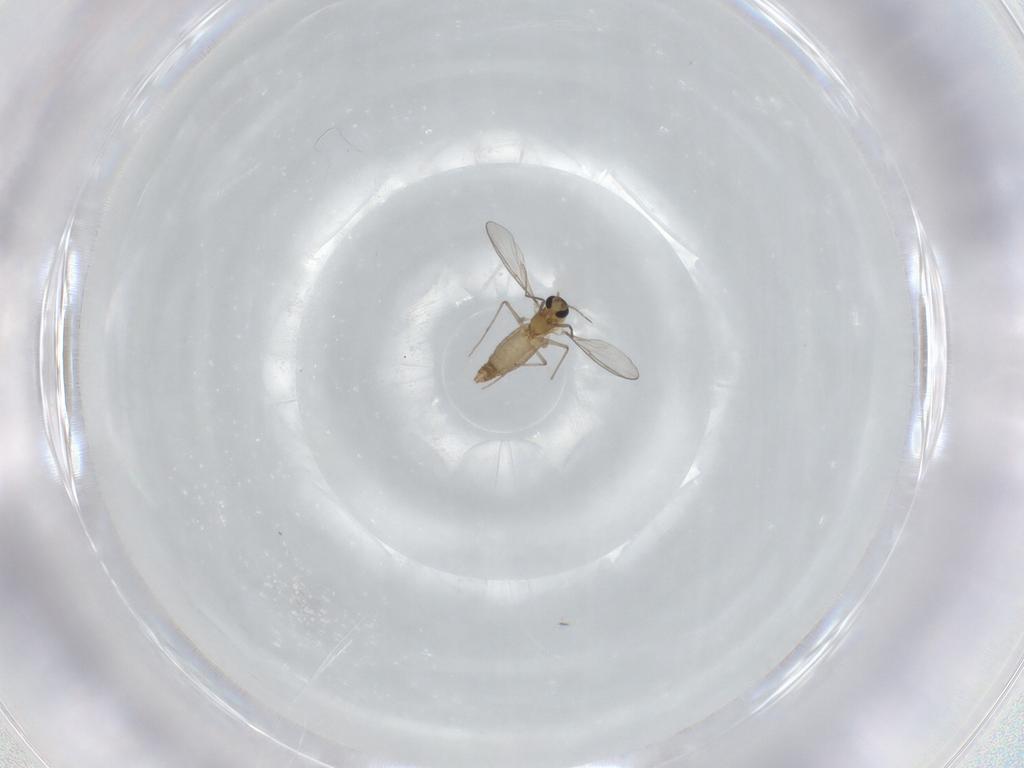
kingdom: Animalia
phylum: Arthropoda
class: Insecta
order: Diptera
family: Chironomidae
